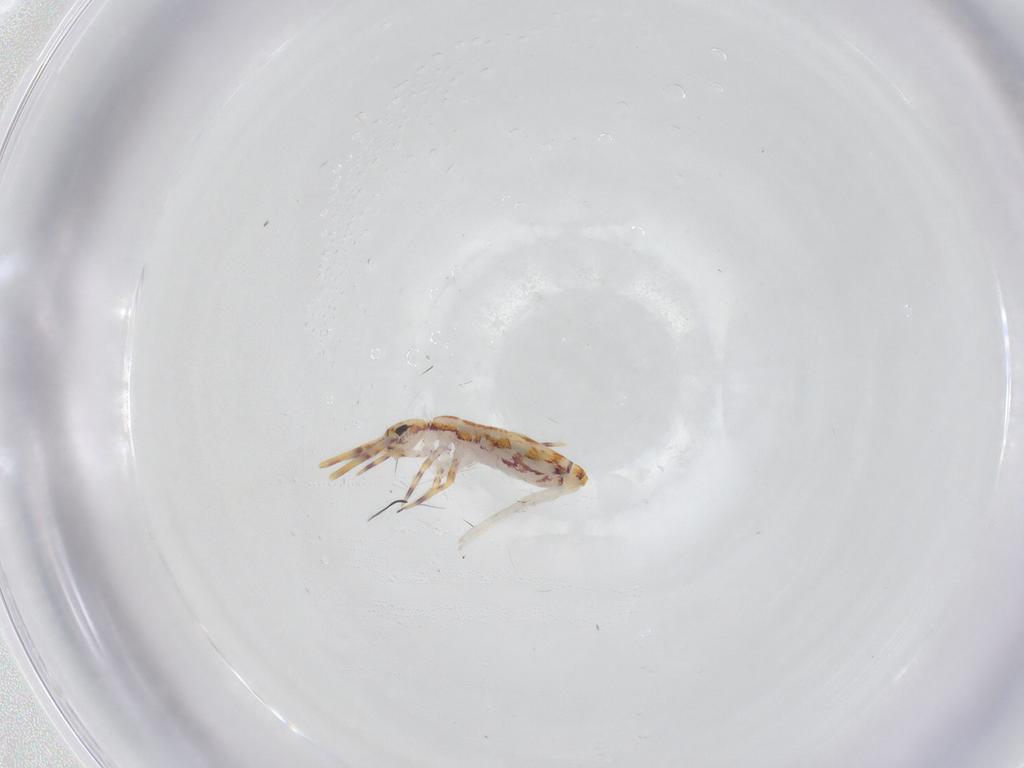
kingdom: Animalia
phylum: Arthropoda
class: Collembola
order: Entomobryomorpha
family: Entomobryidae
